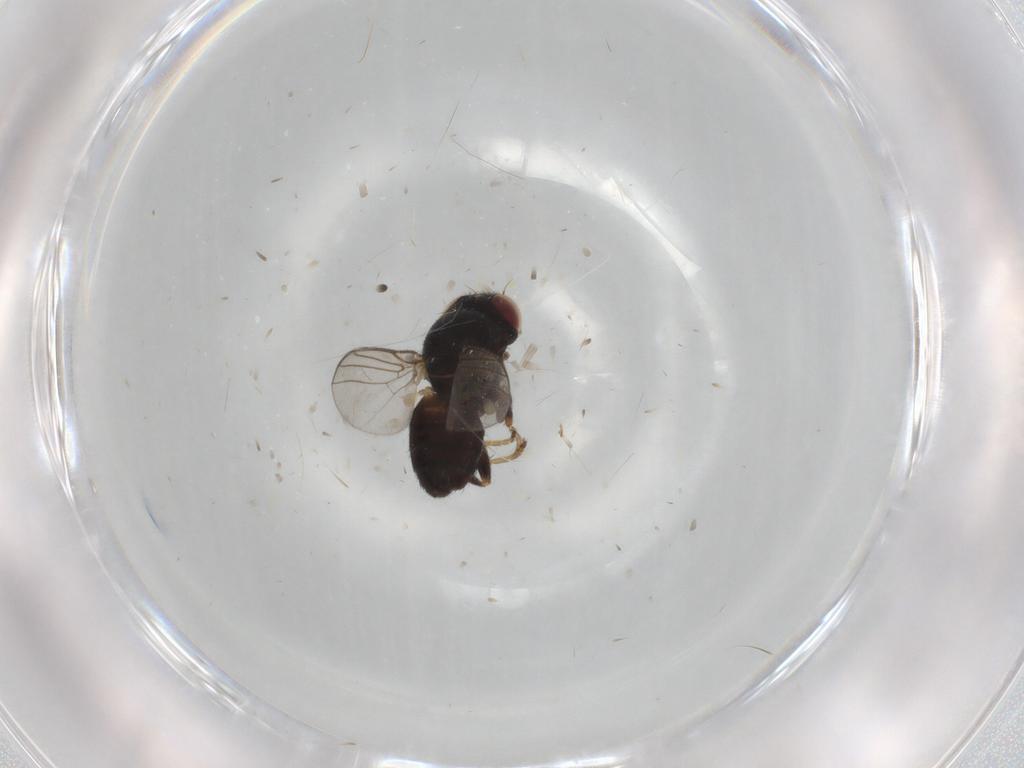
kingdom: Animalia
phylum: Arthropoda
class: Insecta
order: Diptera
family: Chloropidae
